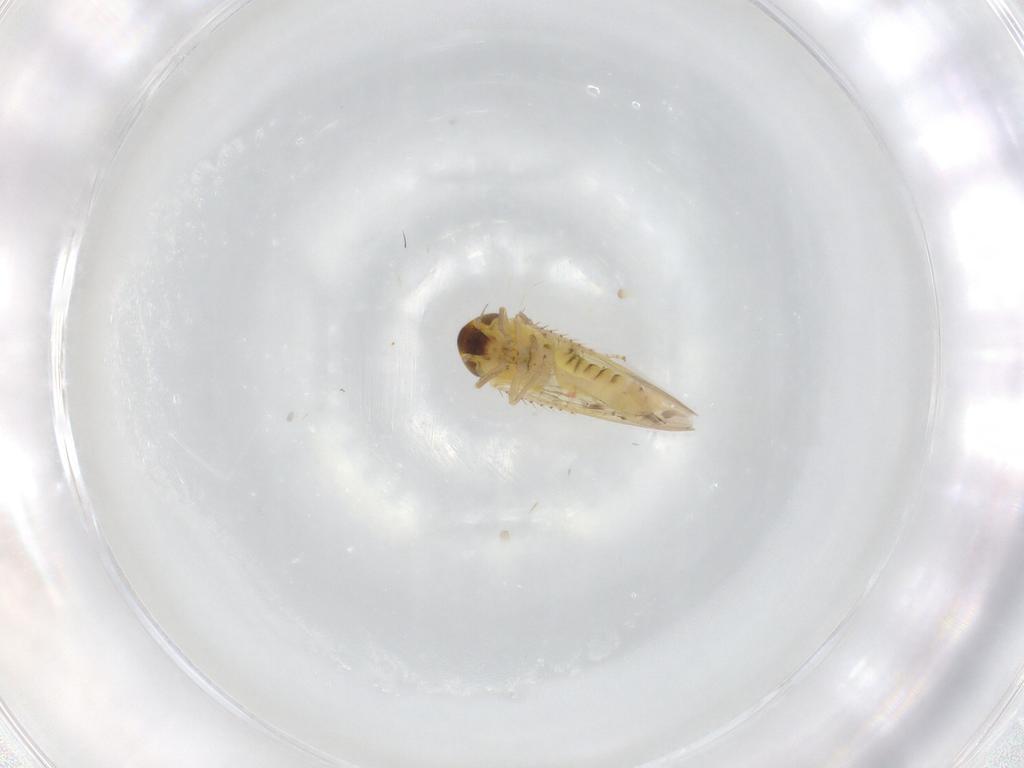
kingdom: Animalia
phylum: Arthropoda
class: Insecta
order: Hemiptera
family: Cicadellidae
